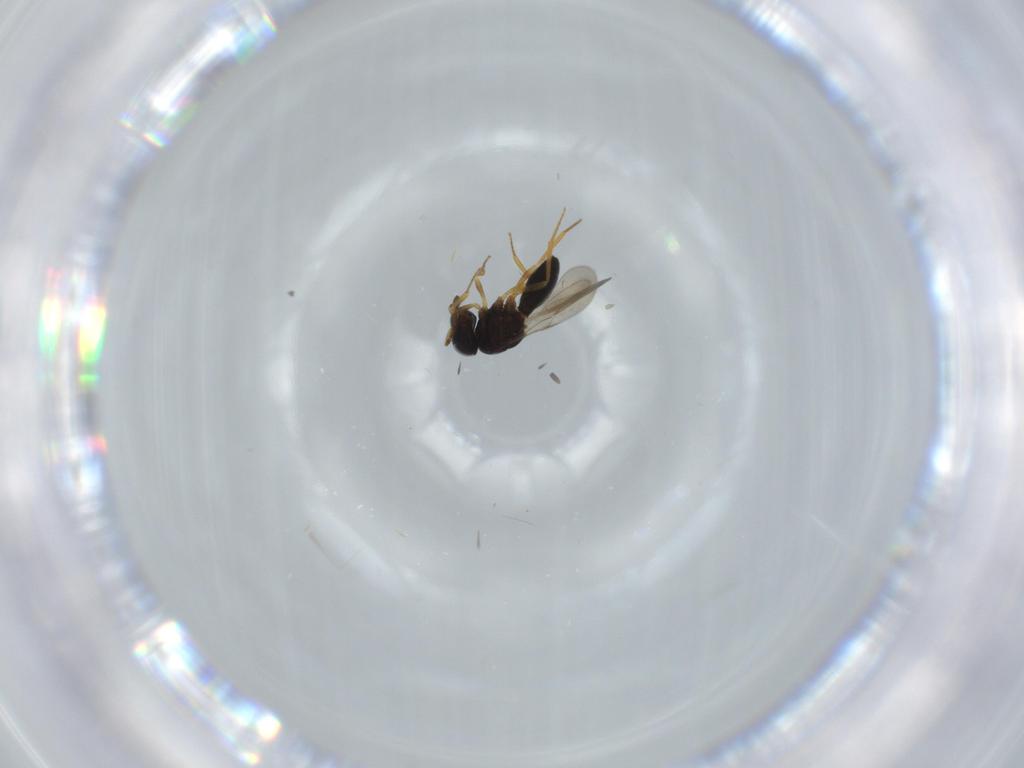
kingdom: Animalia
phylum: Arthropoda
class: Insecta
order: Hymenoptera
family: Scelionidae
